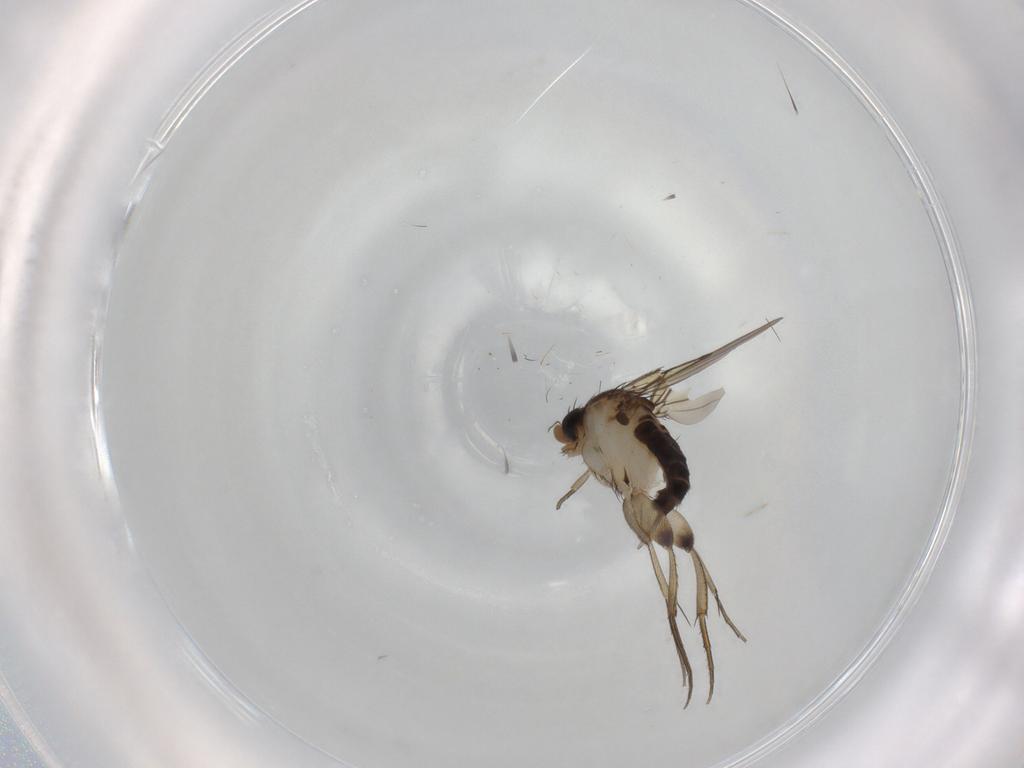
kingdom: Animalia
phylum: Arthropoda
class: Insecta
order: Diptera
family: Phoridae
